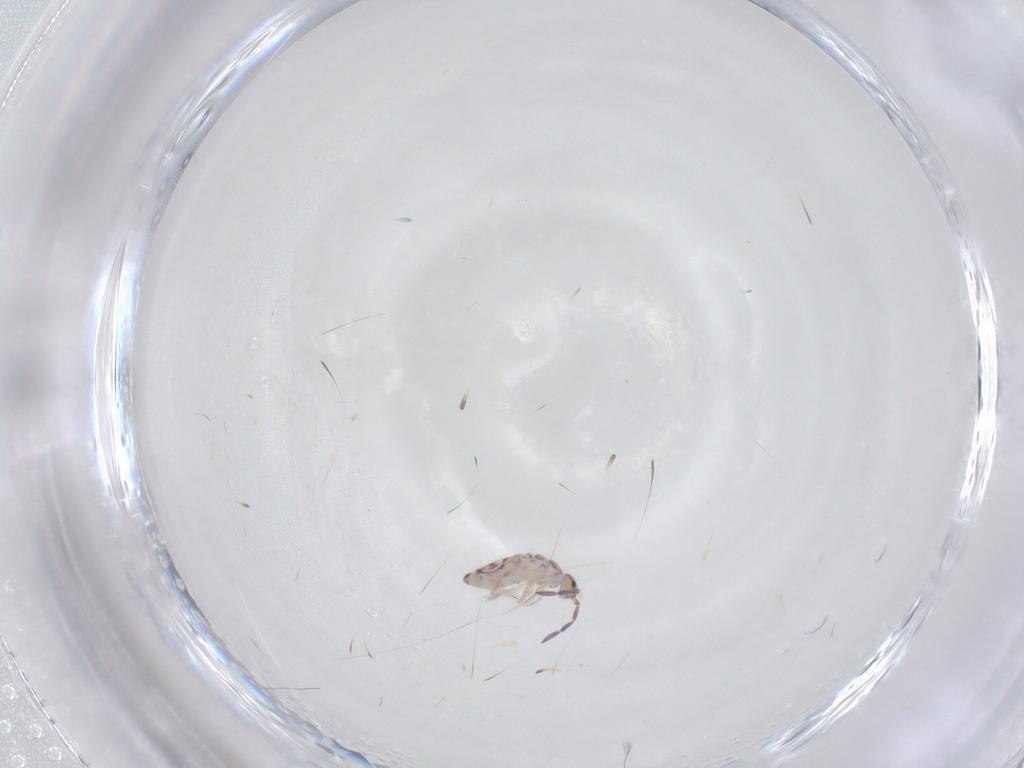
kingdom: Animalia
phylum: Arthropoda
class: Collembola
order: Entomobryomorpha
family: Entomobryidae
